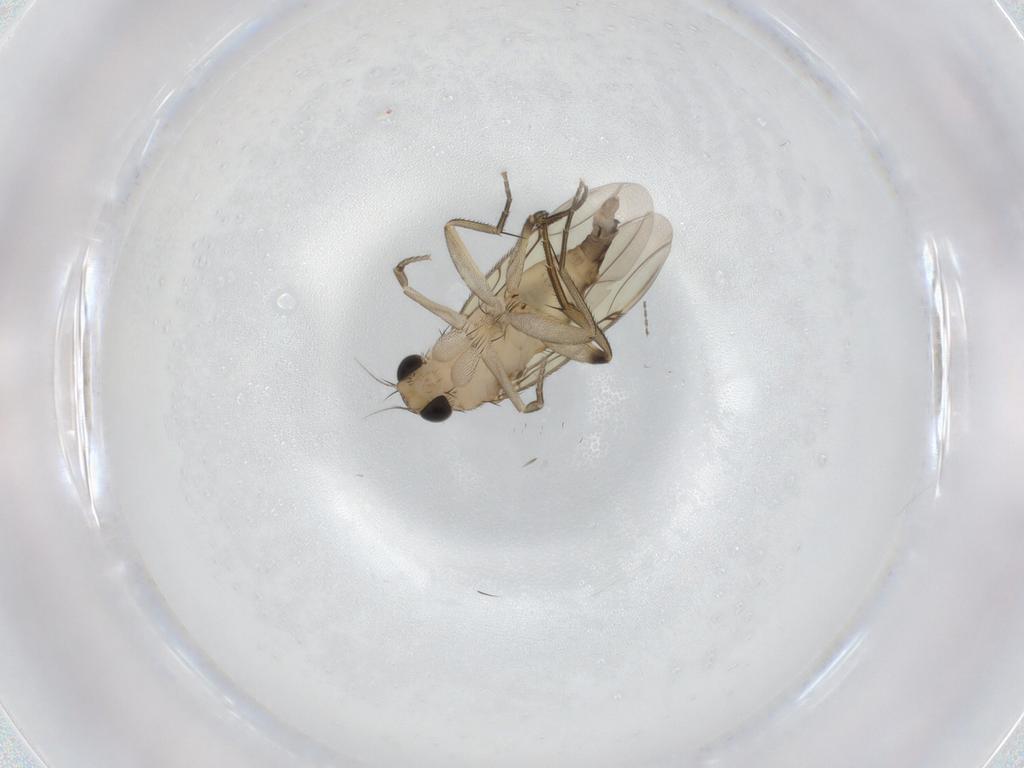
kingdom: Animalia
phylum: Arthropoda
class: Insecta
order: Diptera
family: Phoridae
